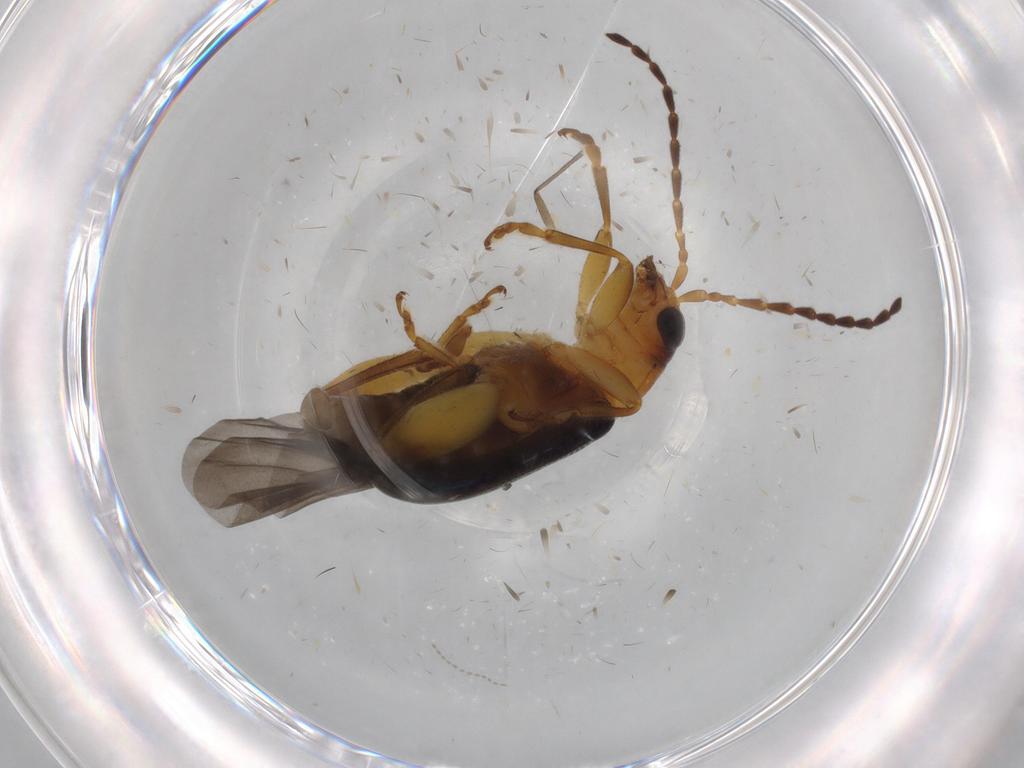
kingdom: Animalia
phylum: Arthropoda
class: Insecta
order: Coleoptera
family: Chrysomelidae
